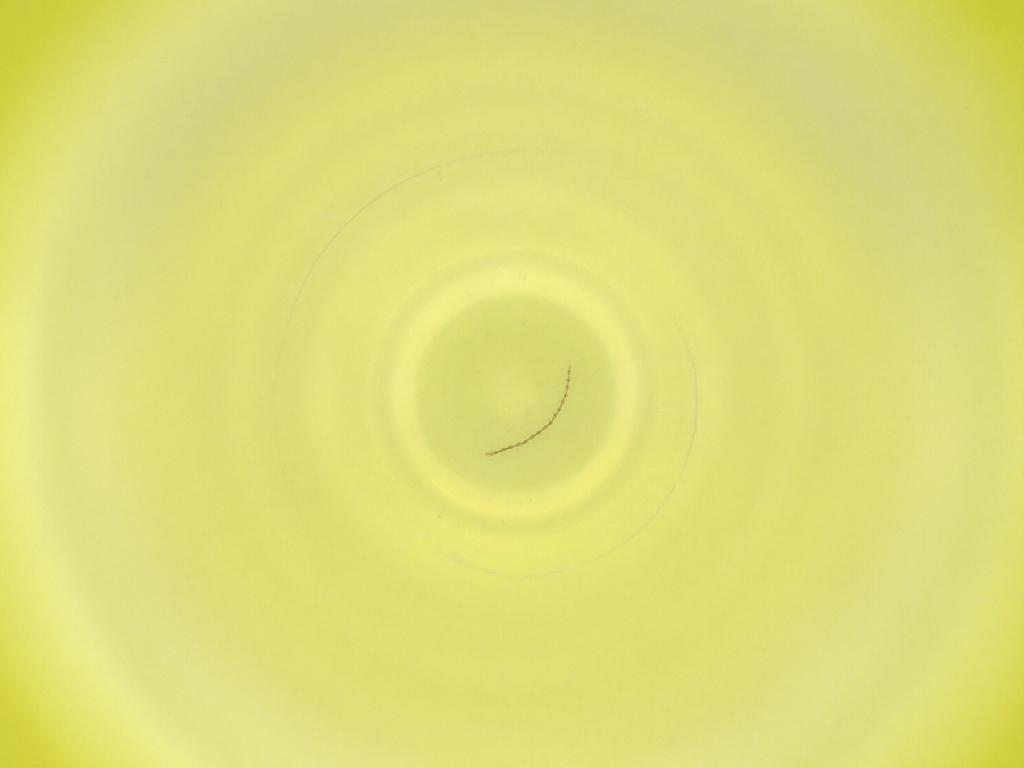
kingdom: Animalia
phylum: Arthropoda
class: Insecta
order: Diptera
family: Cecidomyiidae
